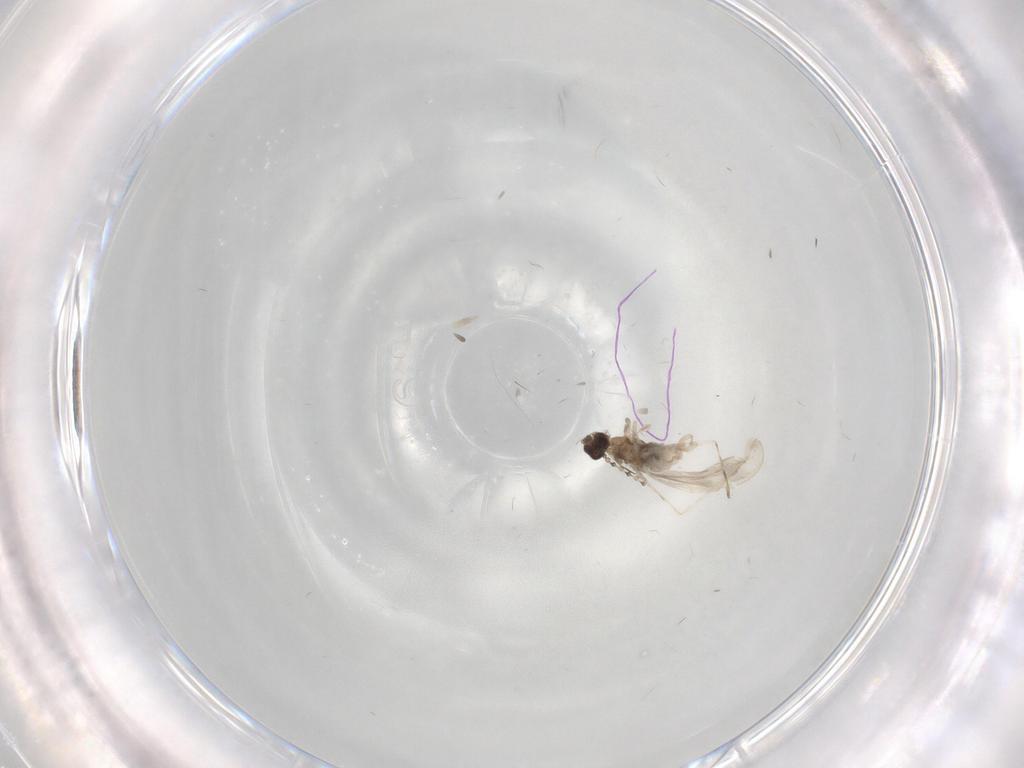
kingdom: Animalia
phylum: Arthropoda
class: Insecta
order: Diptera
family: Cecidomyiidae
